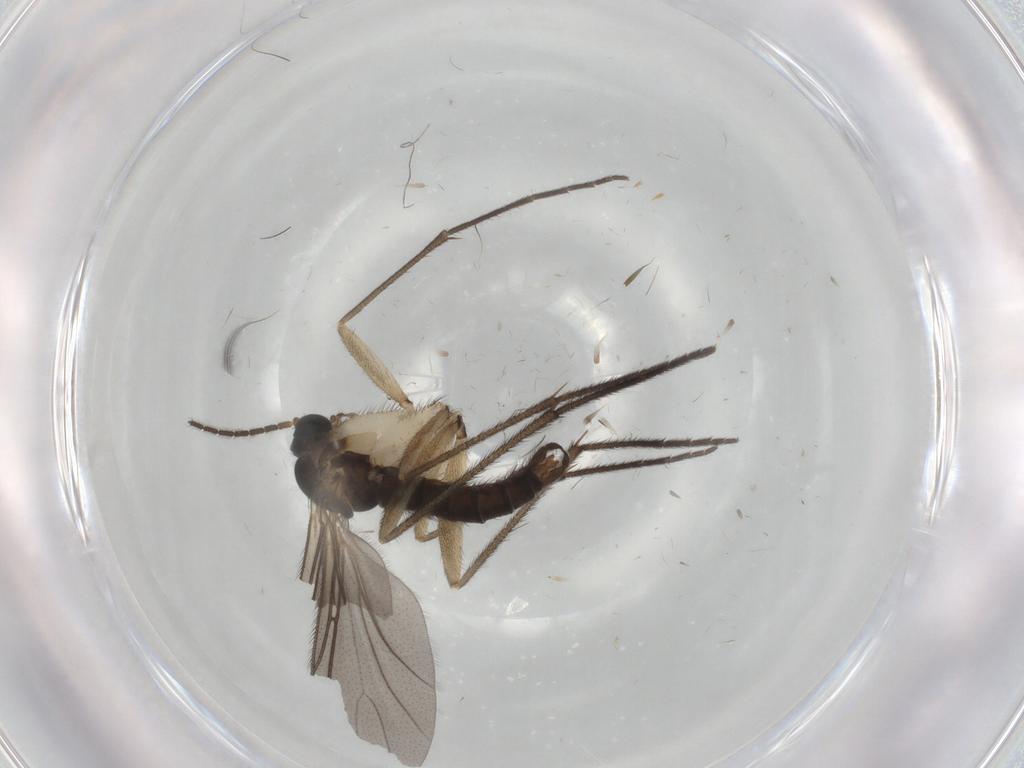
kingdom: Animalia
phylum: Arthropoda
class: Insecta
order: Diptera
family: Sciaridae
